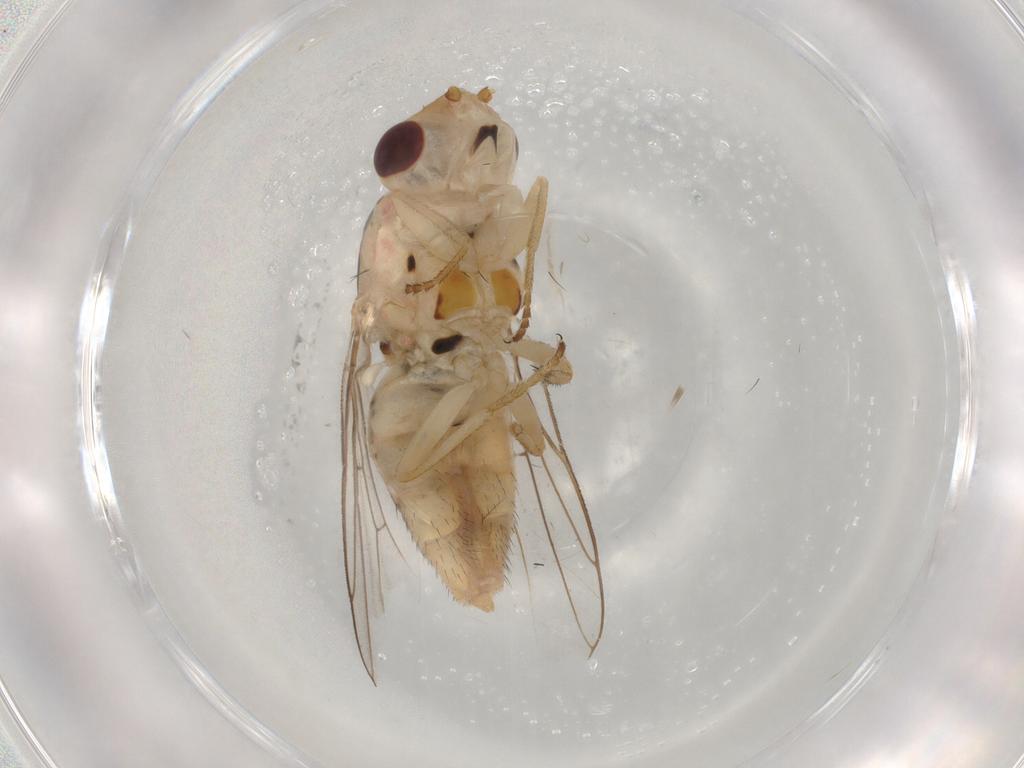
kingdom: Animalia
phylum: Arthropoda
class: Insecta
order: Diptera
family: Chloropidae
